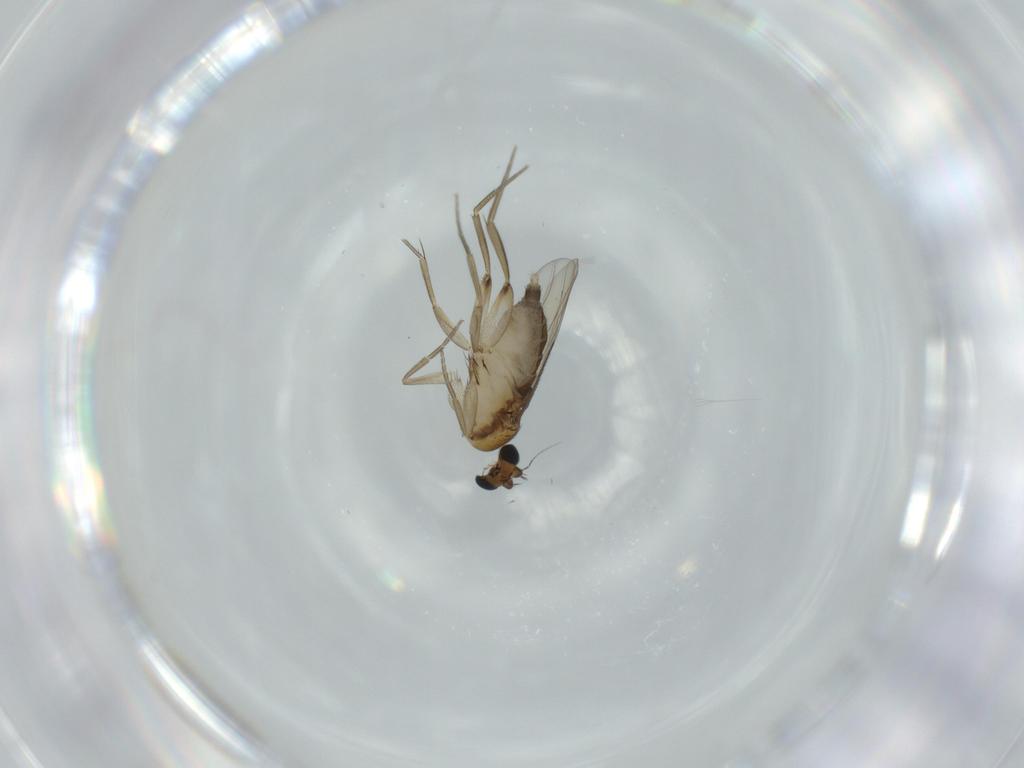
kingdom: Animalia
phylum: Arthropoda
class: Insecta
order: Diptera
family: Phoridae
